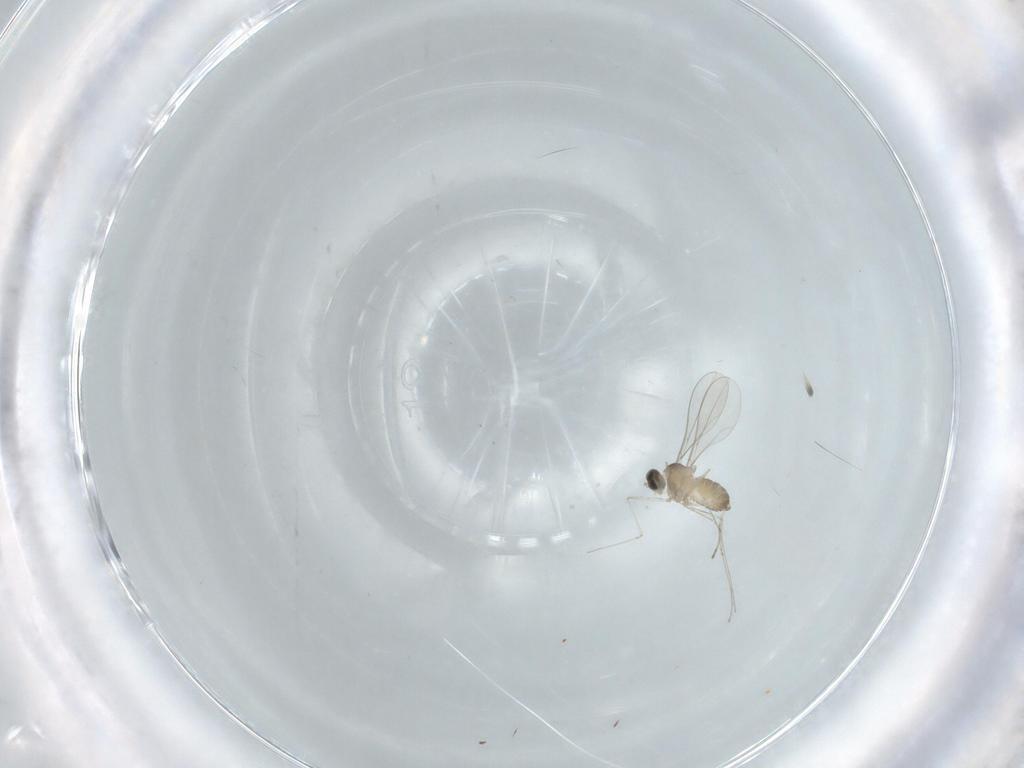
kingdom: Animalia
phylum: Arthropoda
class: Insecta
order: Diptera
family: Cecidomyiidae
